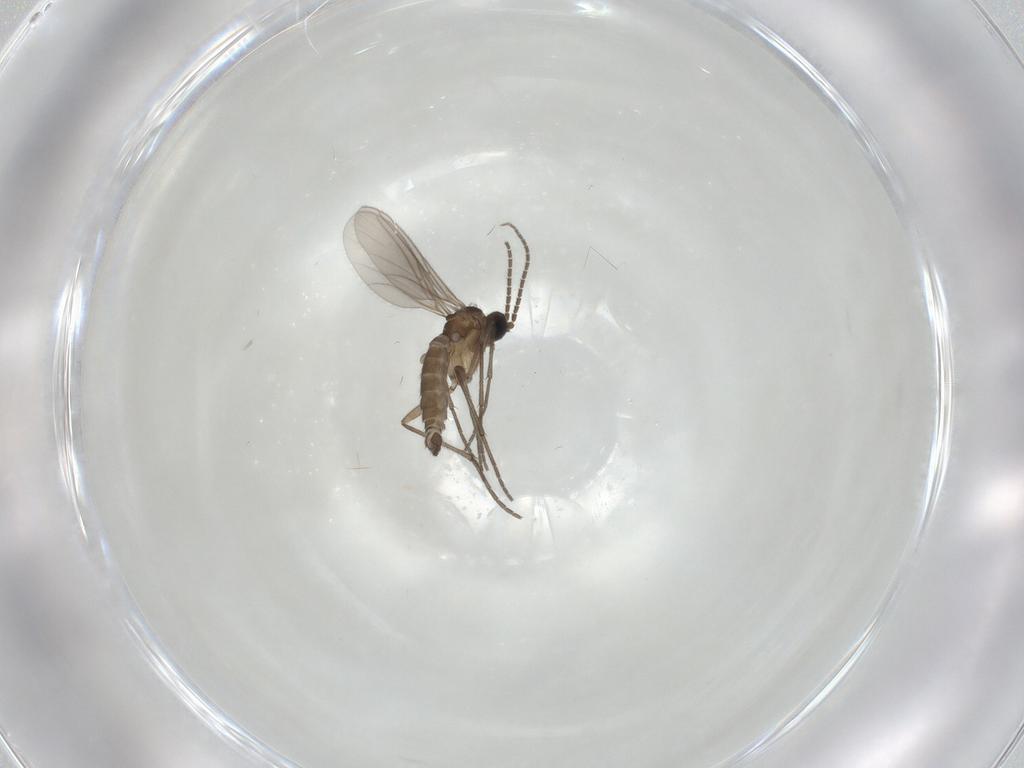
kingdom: Animalia
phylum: Arthropoda
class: Insecta
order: Diptera
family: Sciaridae
